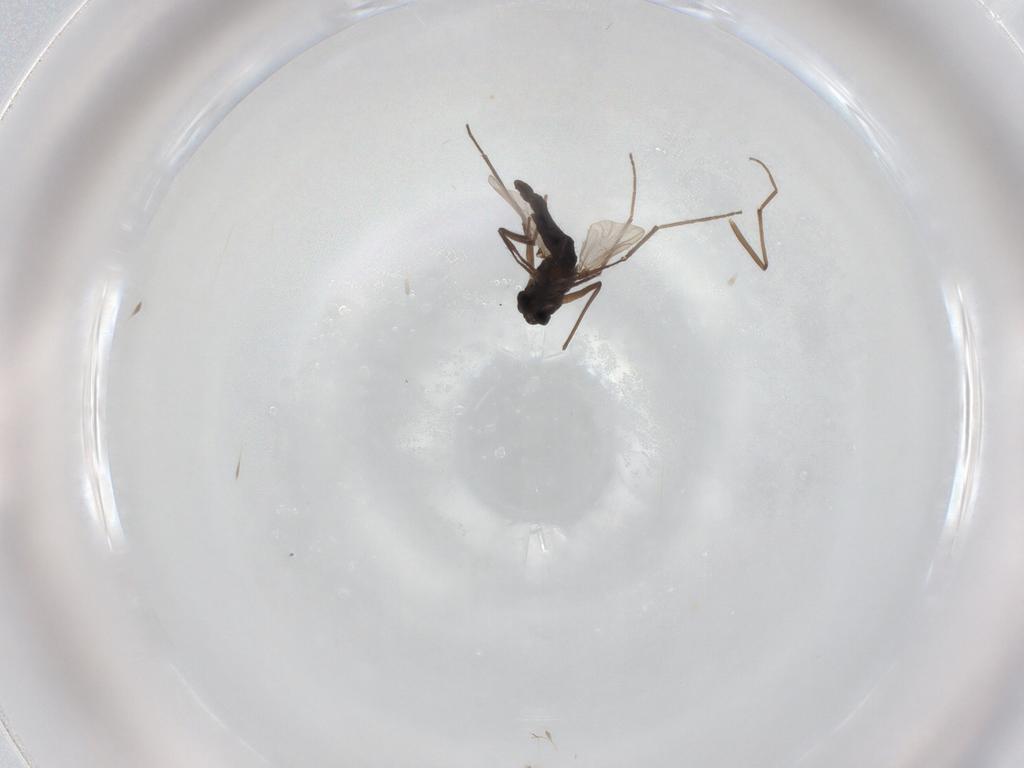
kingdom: Animalia
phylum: Arthropoda
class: Insecta
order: Diptera
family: Chironomidae
